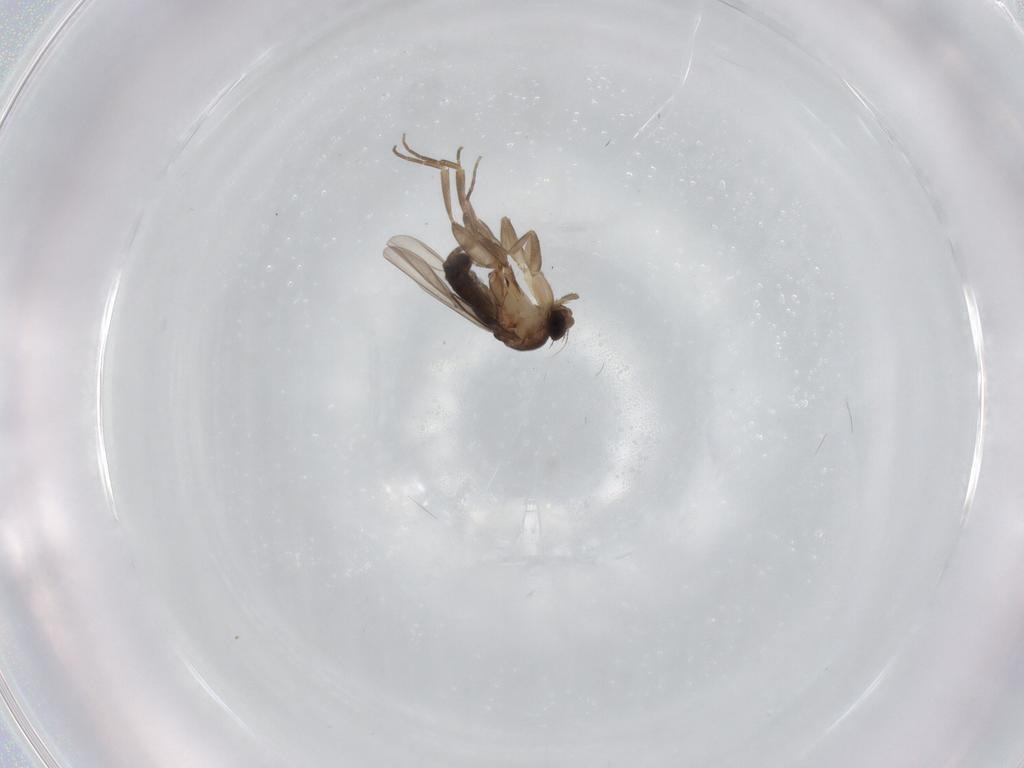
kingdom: Animalia
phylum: Arthropoda
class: Insecta
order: Diptera
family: Phoridae
